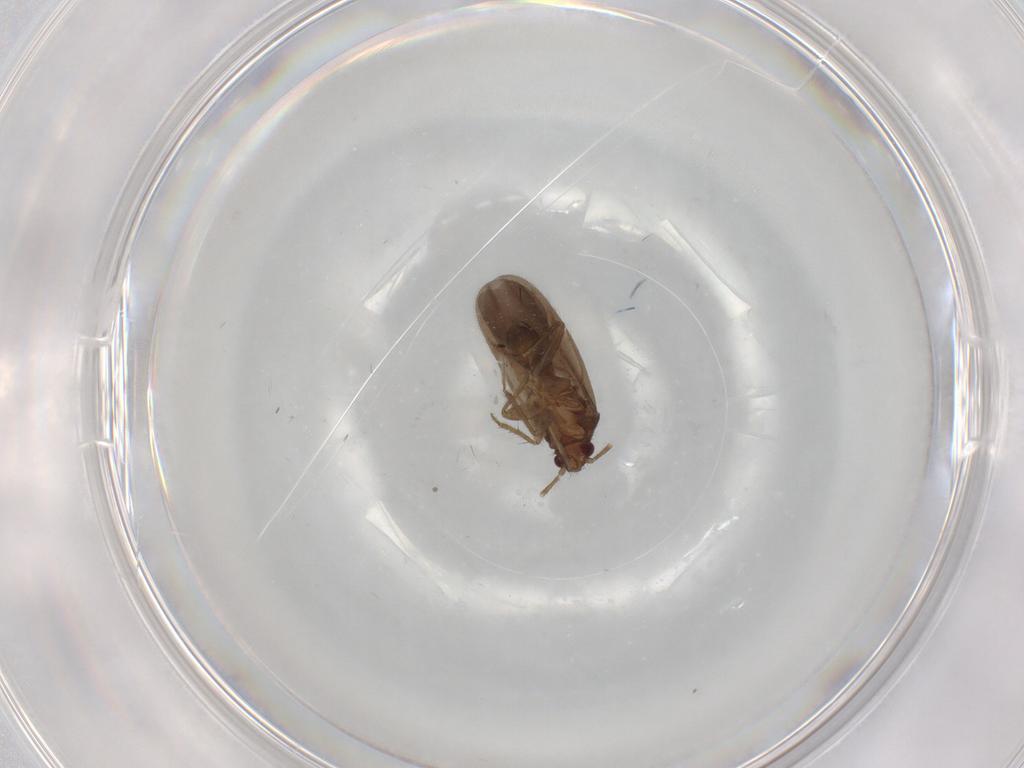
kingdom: Animalia
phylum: Arthropoda
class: Insecta
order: Hemiptera
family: Ceratocombidae
